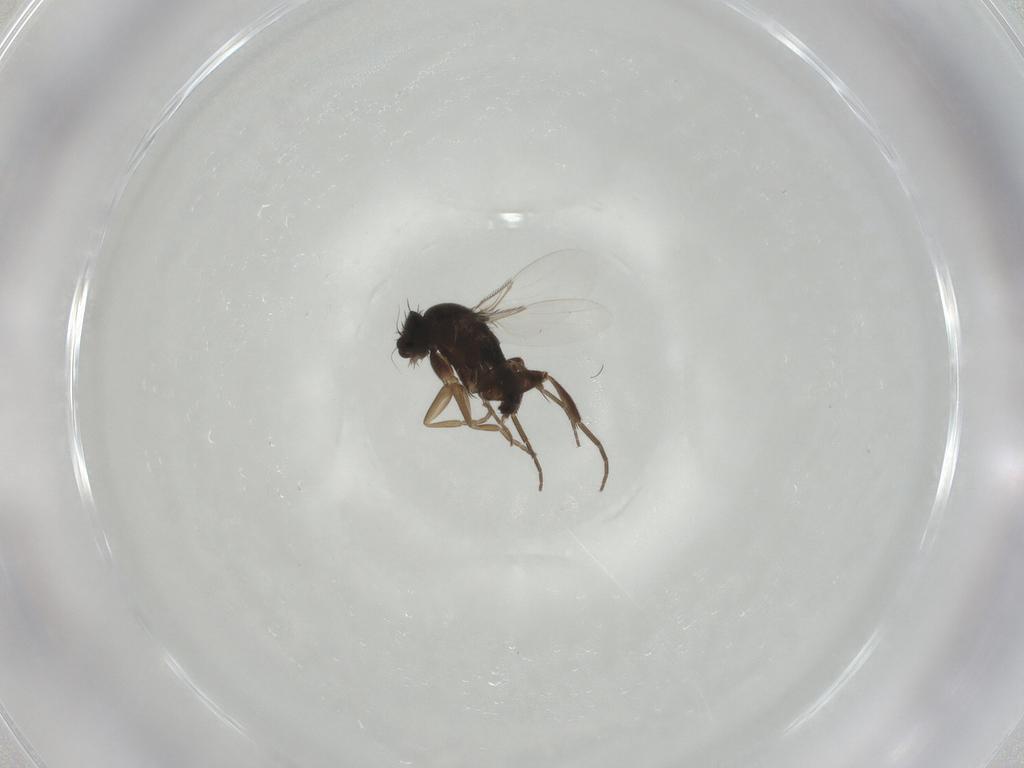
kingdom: Animalia
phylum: Arthropoda
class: Insecta
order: Diptera
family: Phoridae
